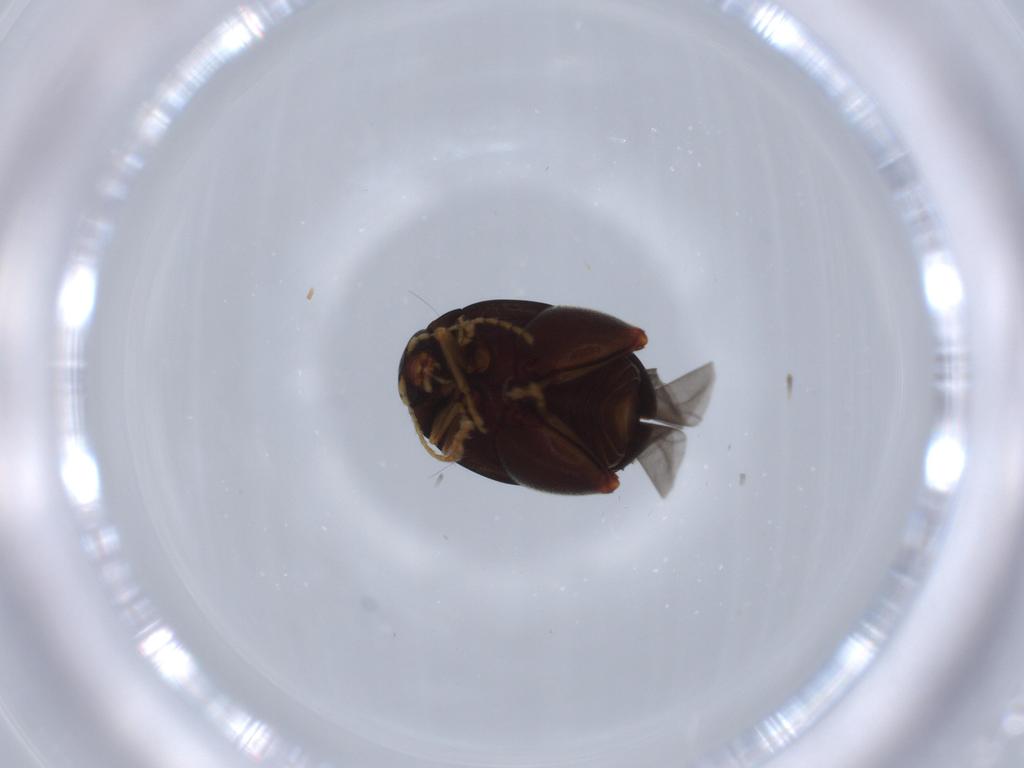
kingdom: Animalia
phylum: Arthropoda
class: Insecta
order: Coleoptera
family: Chrysomelidae
